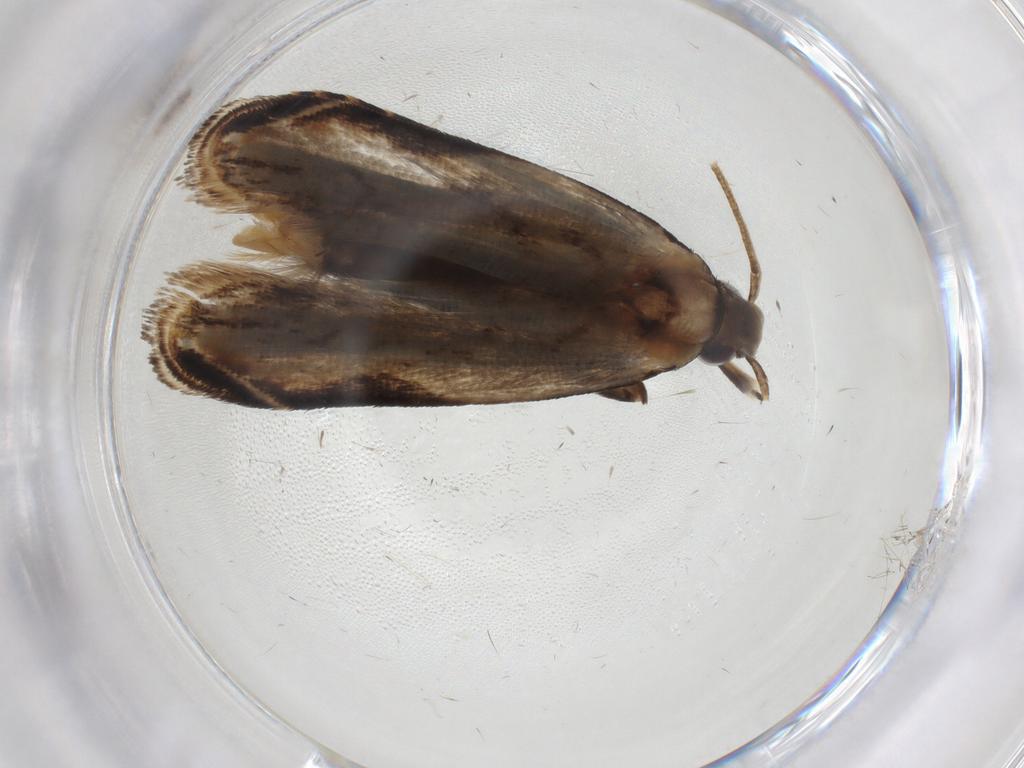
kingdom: Animalia
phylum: Arthropoda
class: Insecta
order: Lepidoptera
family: Gelechiidae
